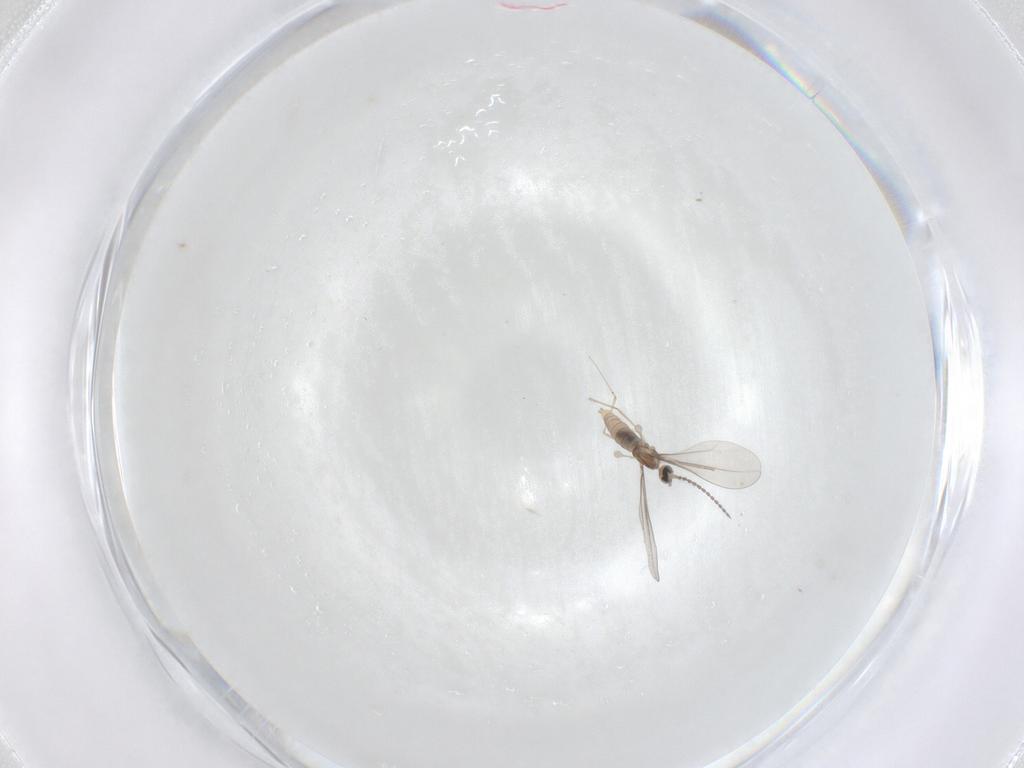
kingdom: Animalia
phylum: Arthropoda
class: Insecta
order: Diptera
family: Cecidomyiidae
